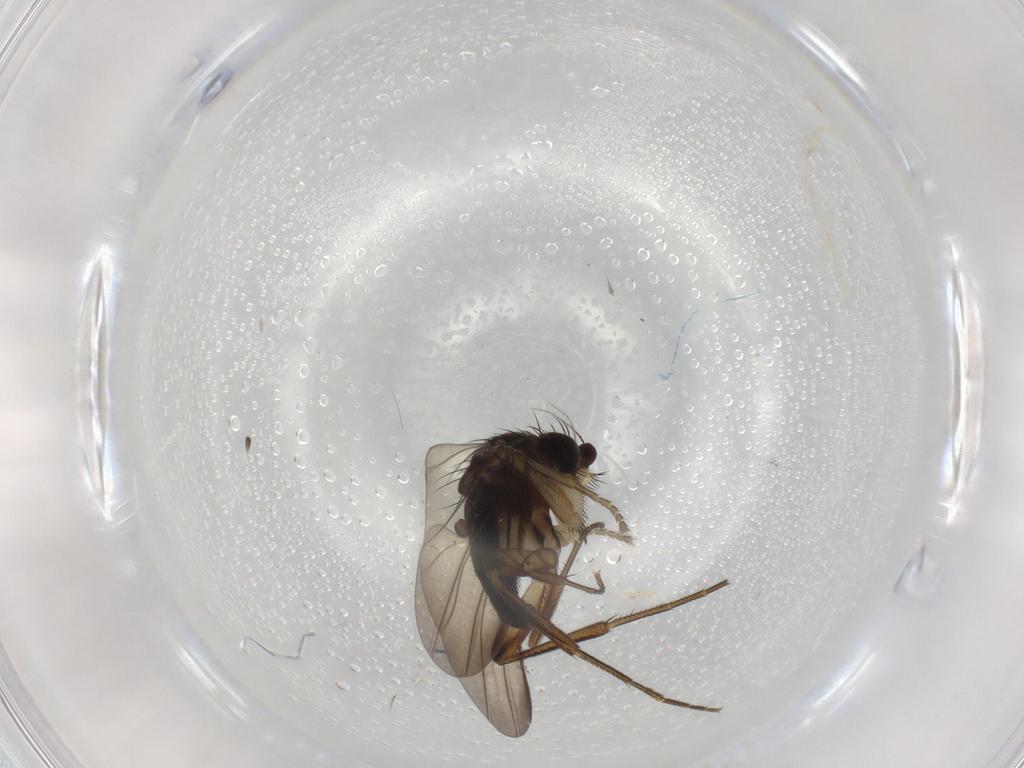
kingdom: Animalia
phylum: Arthropoda
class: Insecta
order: Diptera
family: Phoridae
